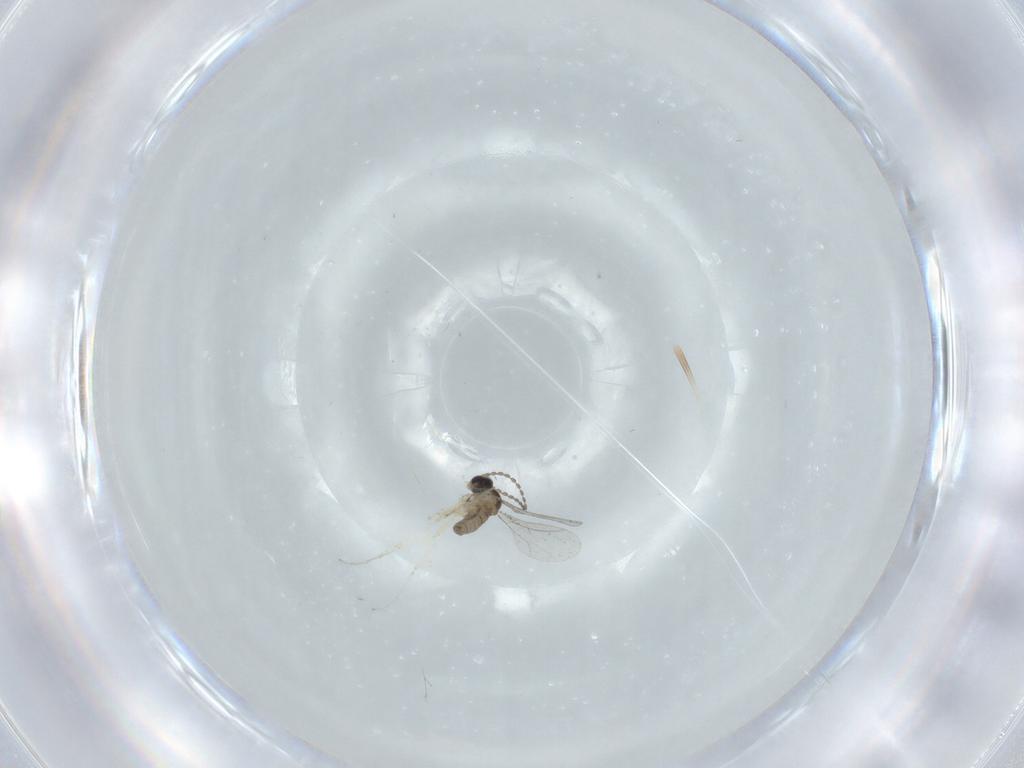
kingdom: Animalia
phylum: Arthropoda
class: Insecta
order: Diptera
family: Cecidomyiidae
